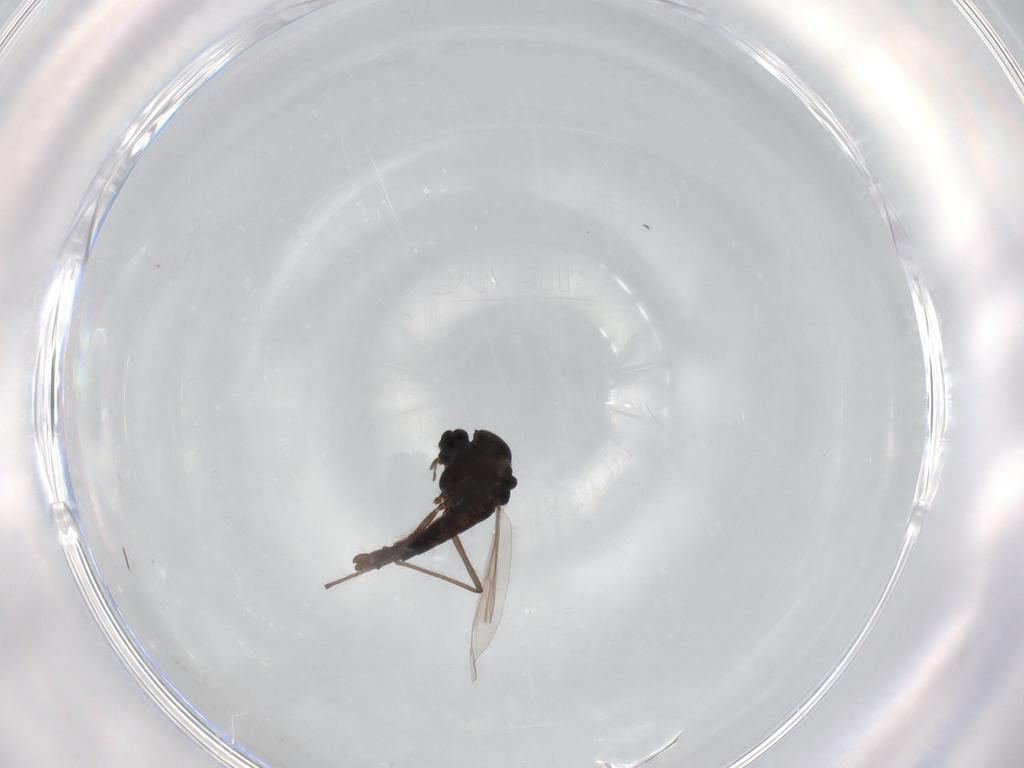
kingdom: Animalia
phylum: Arthropoda
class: Insecta
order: Diptera
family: Chironomidae
